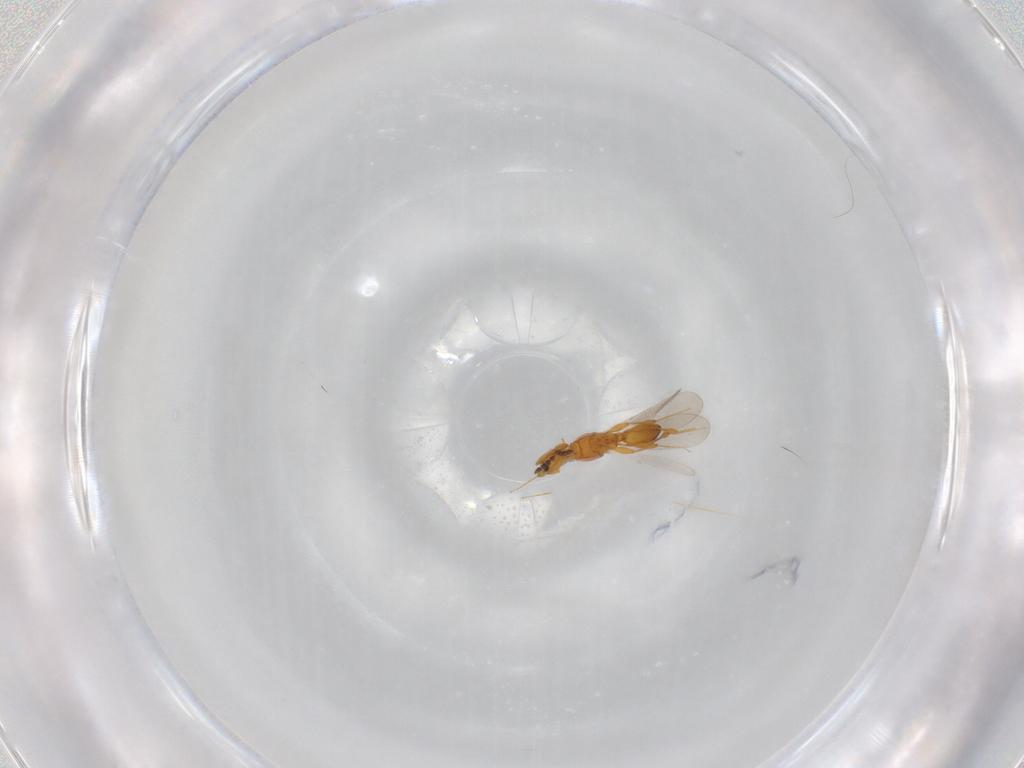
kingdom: Animalia
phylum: Arthropoda
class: Insecta
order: Hymenoptera
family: Platygastridae
